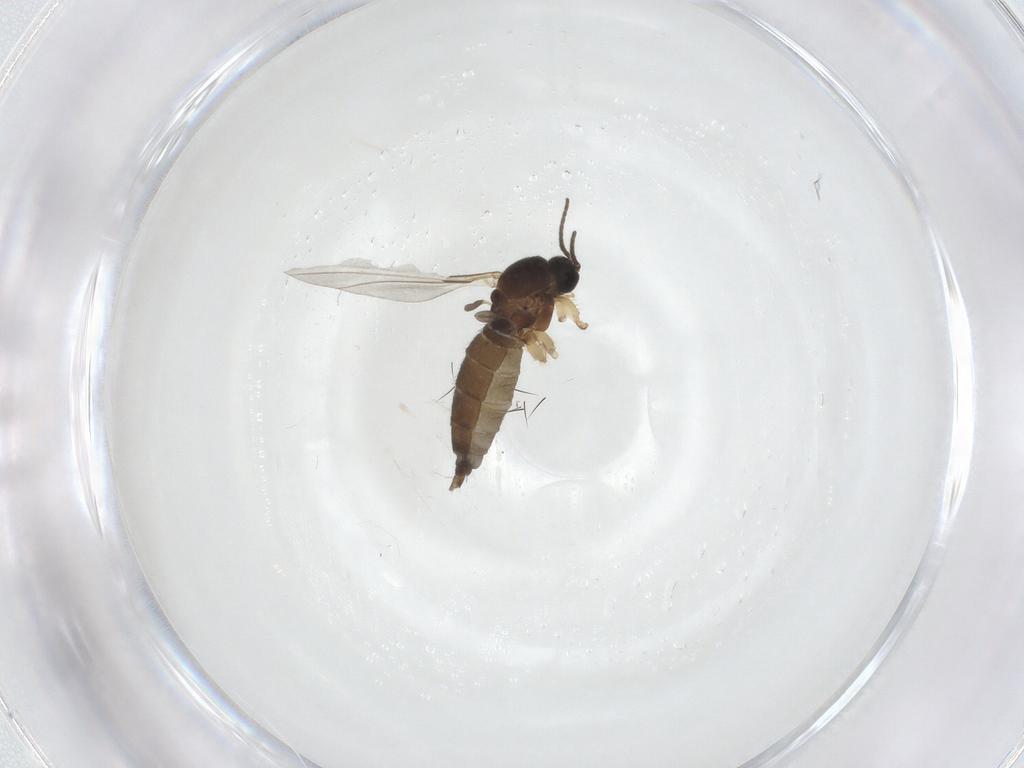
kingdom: Animalia
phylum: Arthropoda
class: Insecta
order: Diptera
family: Sciaridae
